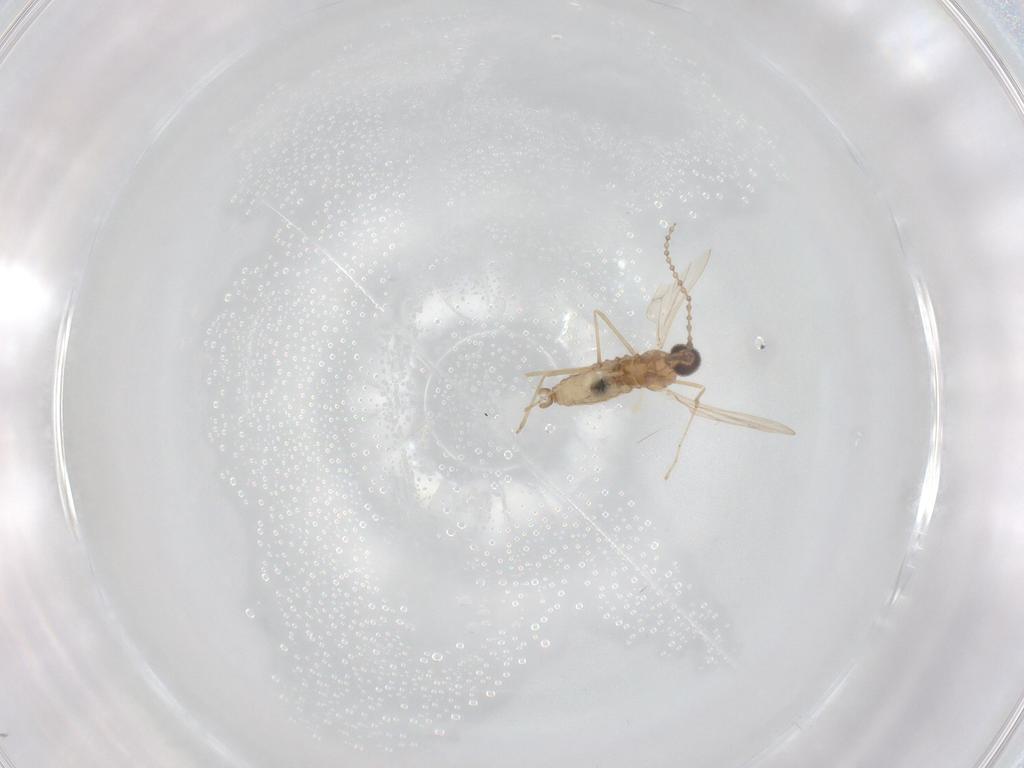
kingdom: Animalia
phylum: Arthropoda
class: Insecta
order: Diptera
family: Cecidomyiidae
